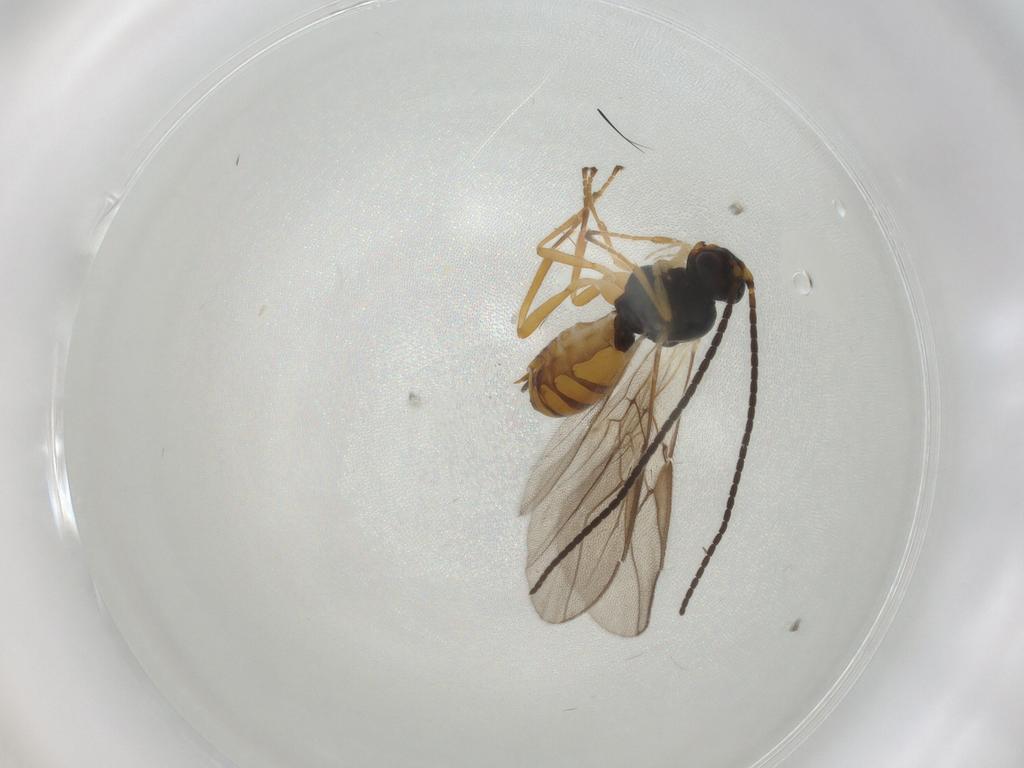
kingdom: Animalia
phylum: Arthropoda
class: Insecta
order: Hymenoptera
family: Braconidae
